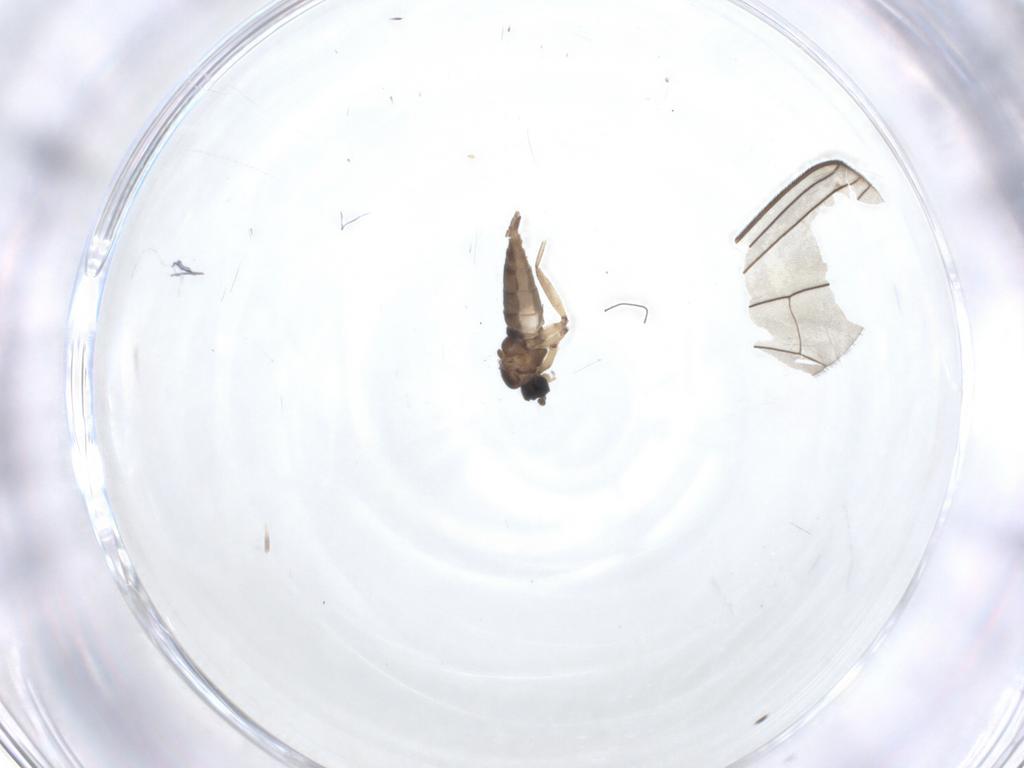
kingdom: Animalia
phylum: Arthropoda
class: Insecta
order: Diptera
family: Dolichopodidae
